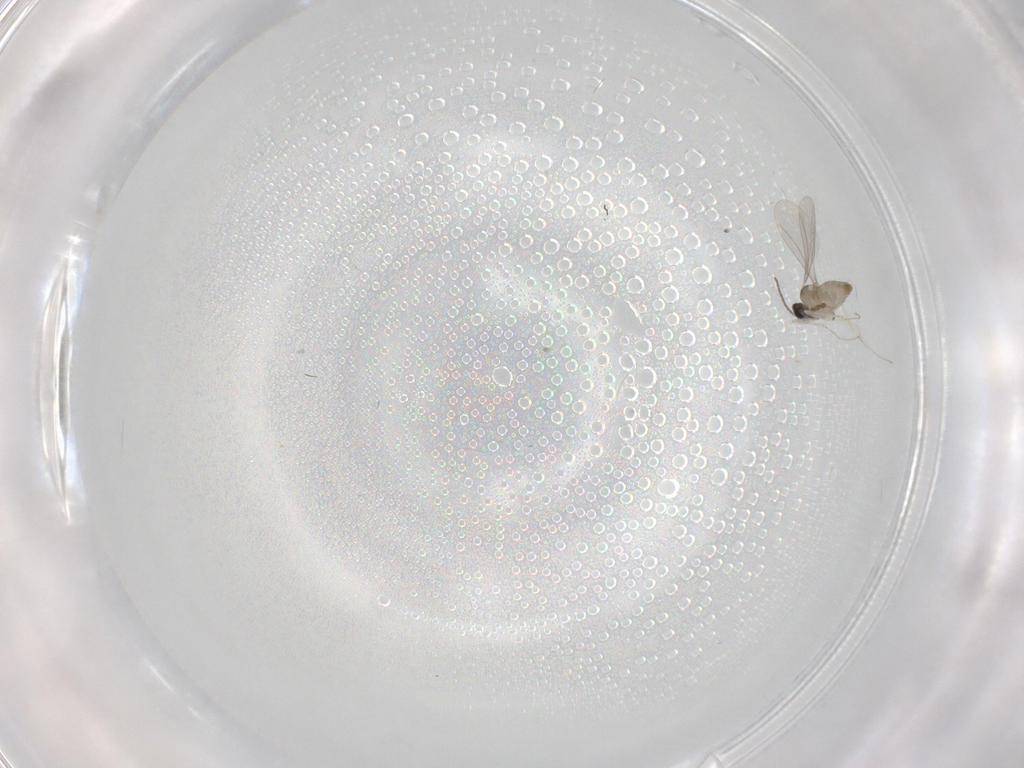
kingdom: Animalia
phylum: Arthropoda
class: Insecta
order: Diptera
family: Cecidomyiidae
